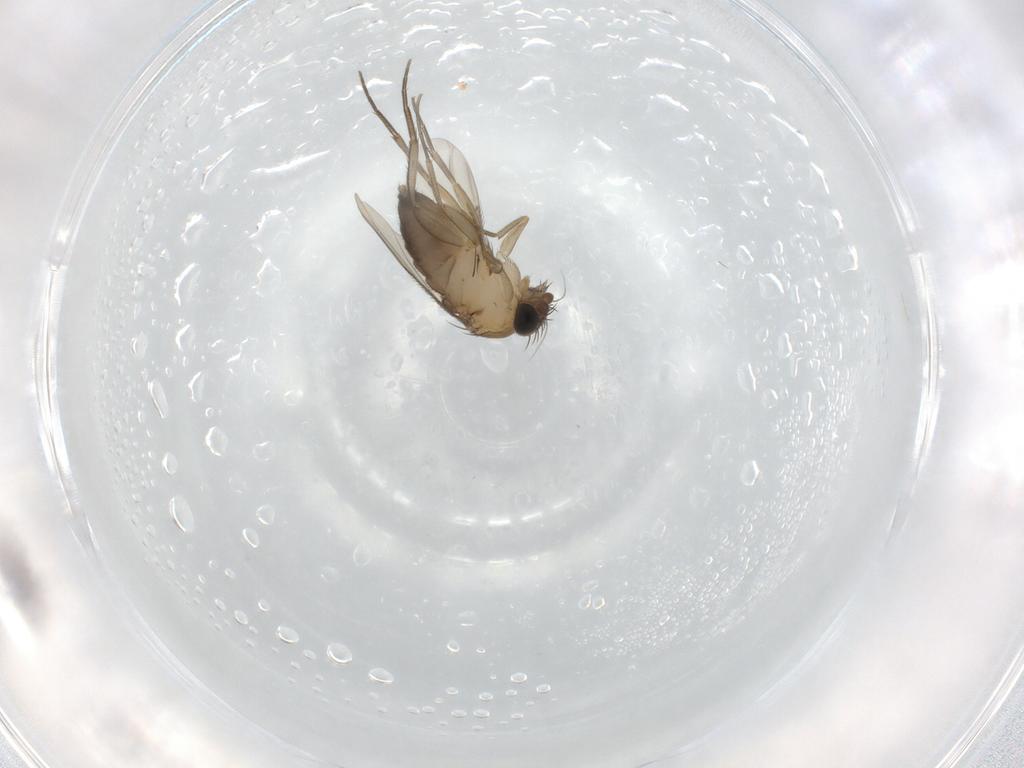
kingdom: Animalia
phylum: Arthropoda
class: Insecta
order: Diptera
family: Phoridae
